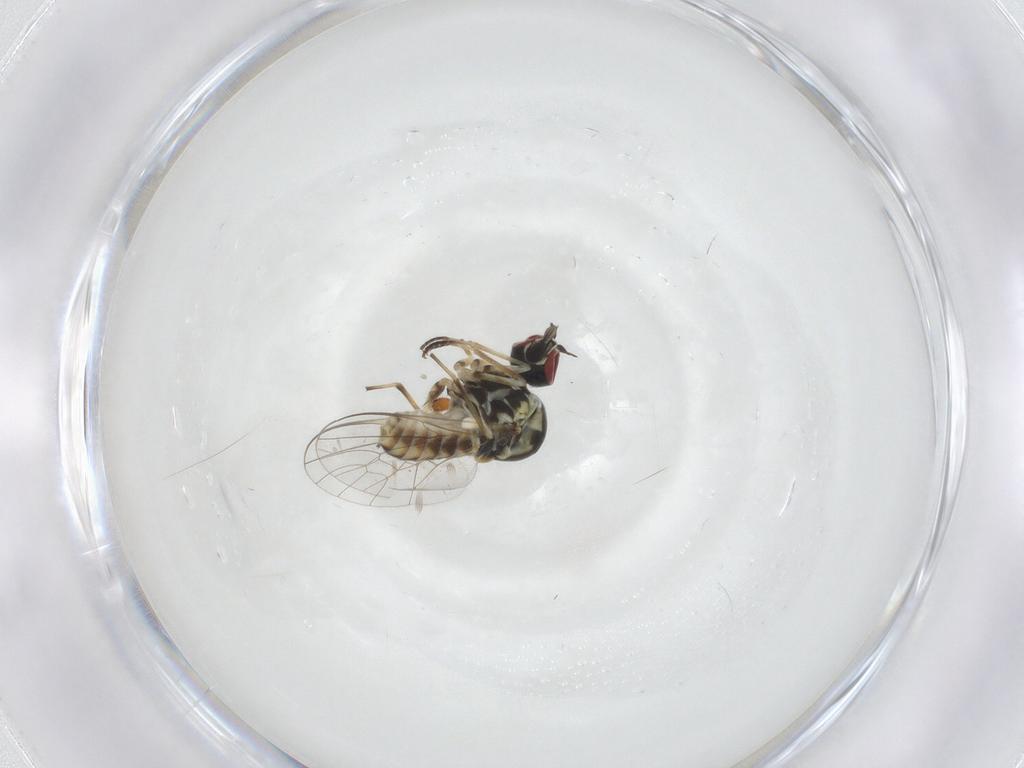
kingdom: Animalia
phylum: Arthropoda
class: Insecta
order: Diptera
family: Mythicomyiidae
